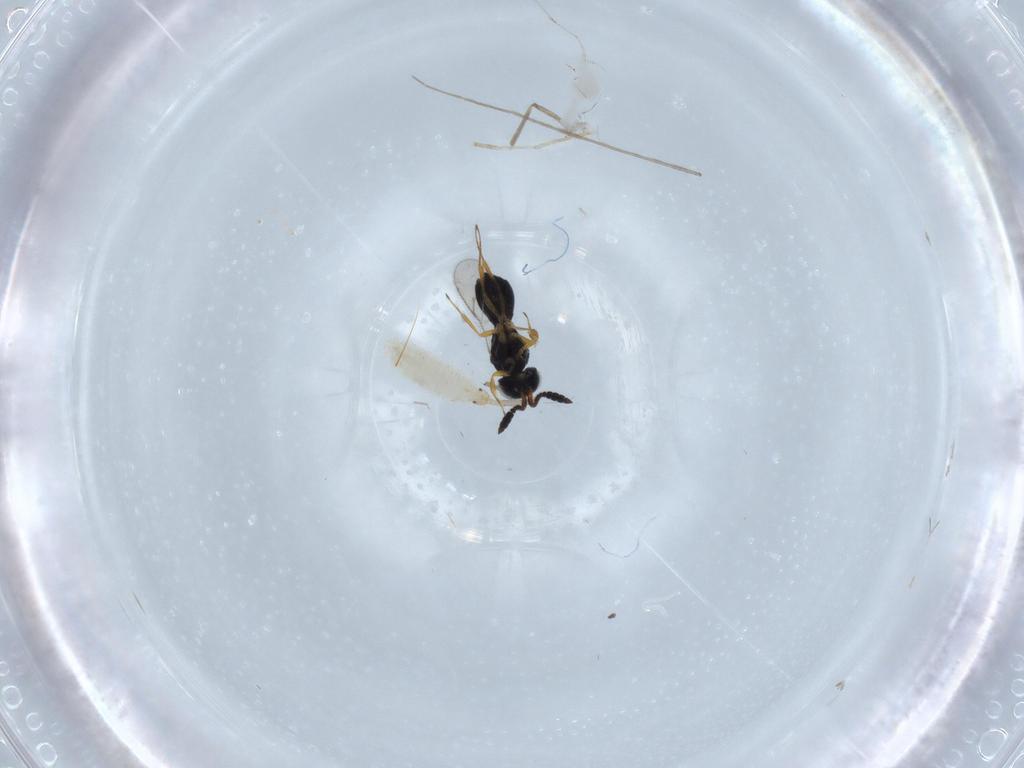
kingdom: Animalia
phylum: Arthropoda
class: Insecta
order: Hymenoptera
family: Scelionidae
